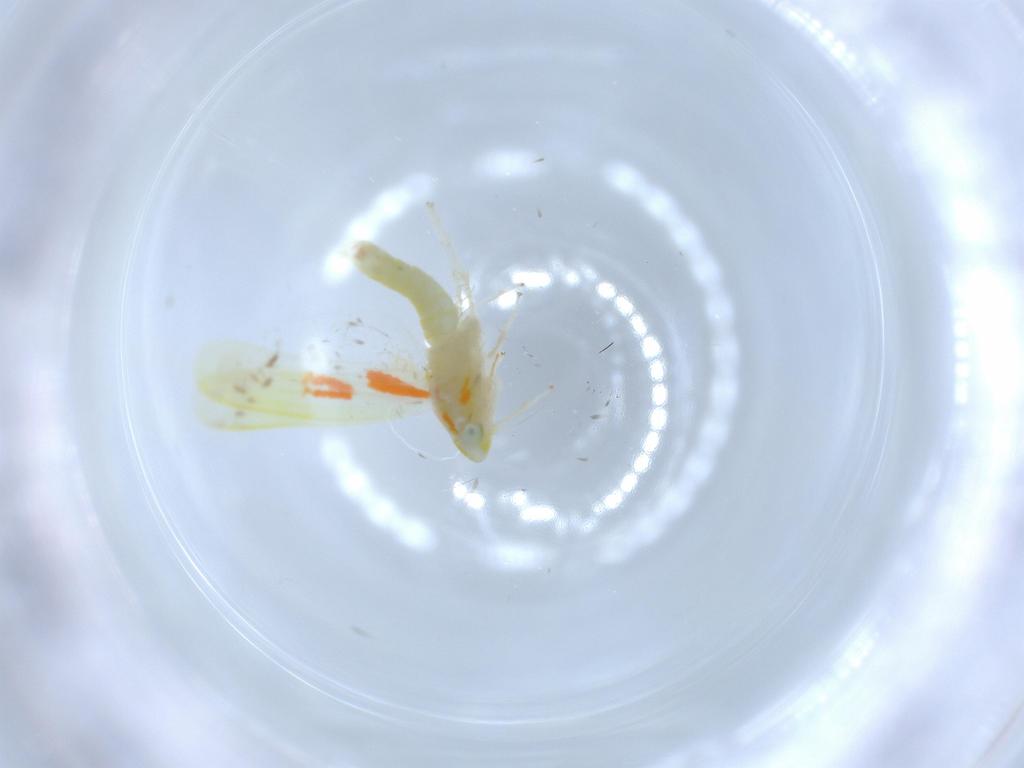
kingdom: Animalia
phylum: Arthropoda
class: Insecta
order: Hemiptera
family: Cicadellidae
